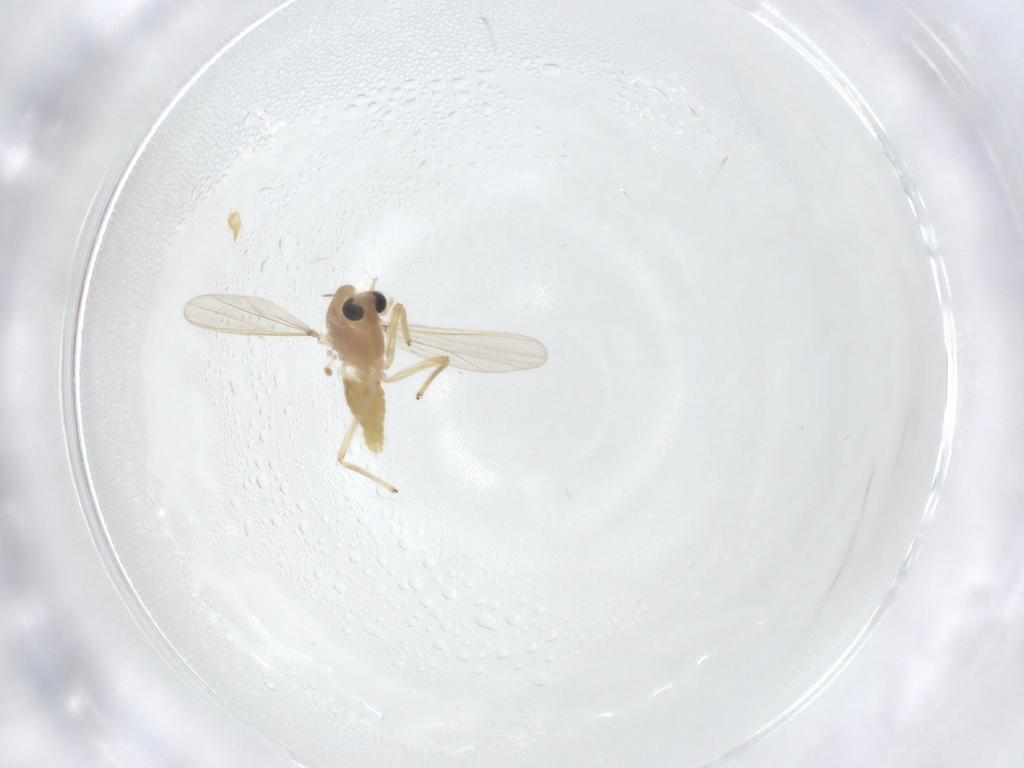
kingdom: Animalia
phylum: Arthropoda
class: Insecta
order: Diptera
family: Chironomidae
